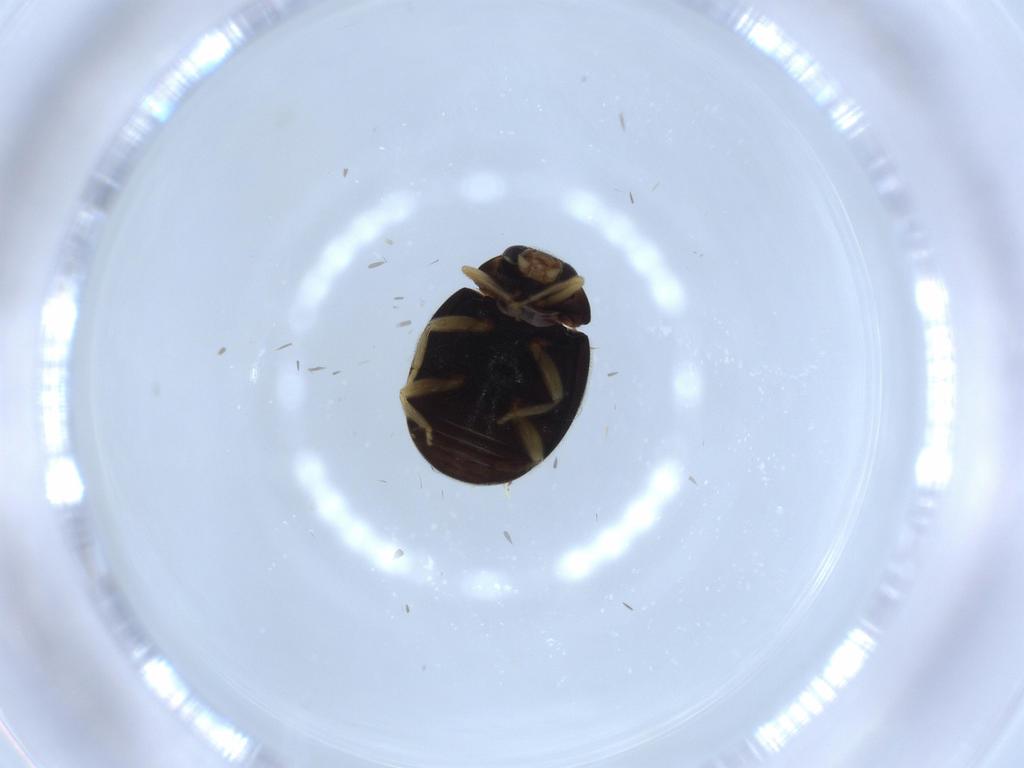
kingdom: Animalia
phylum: Arthropoda
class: Insecta
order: Coleoptera
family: Coccinellidae
